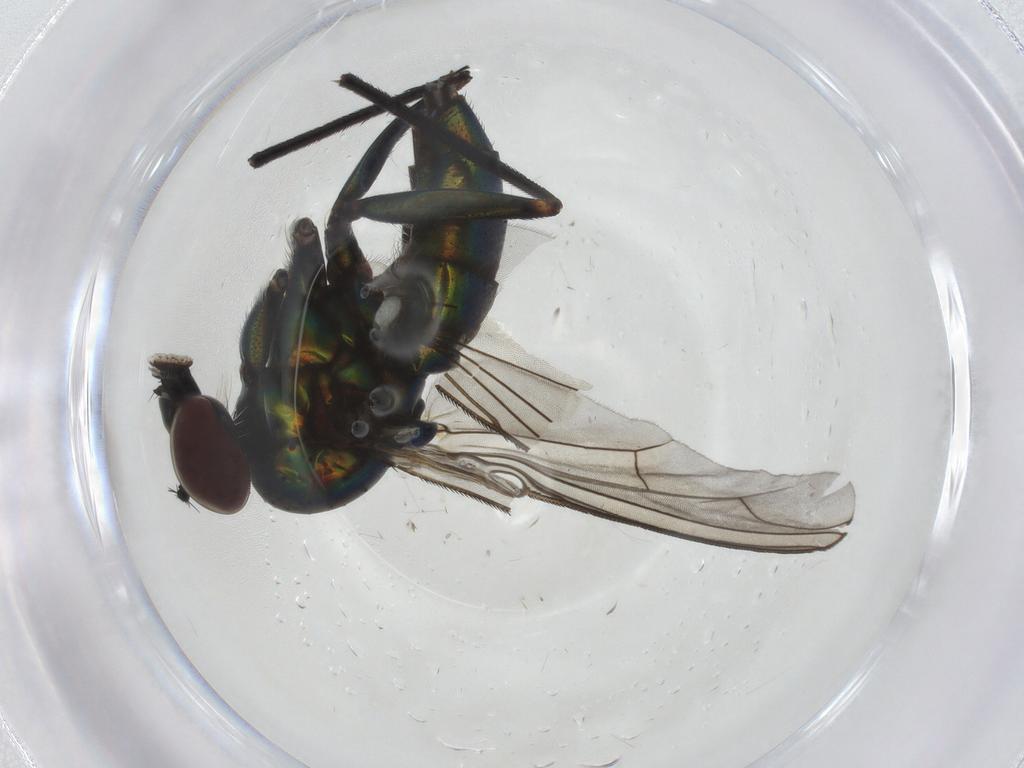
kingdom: Animalia
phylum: Arthropoda
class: Insecta
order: Diptera
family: Dolichopodidae
